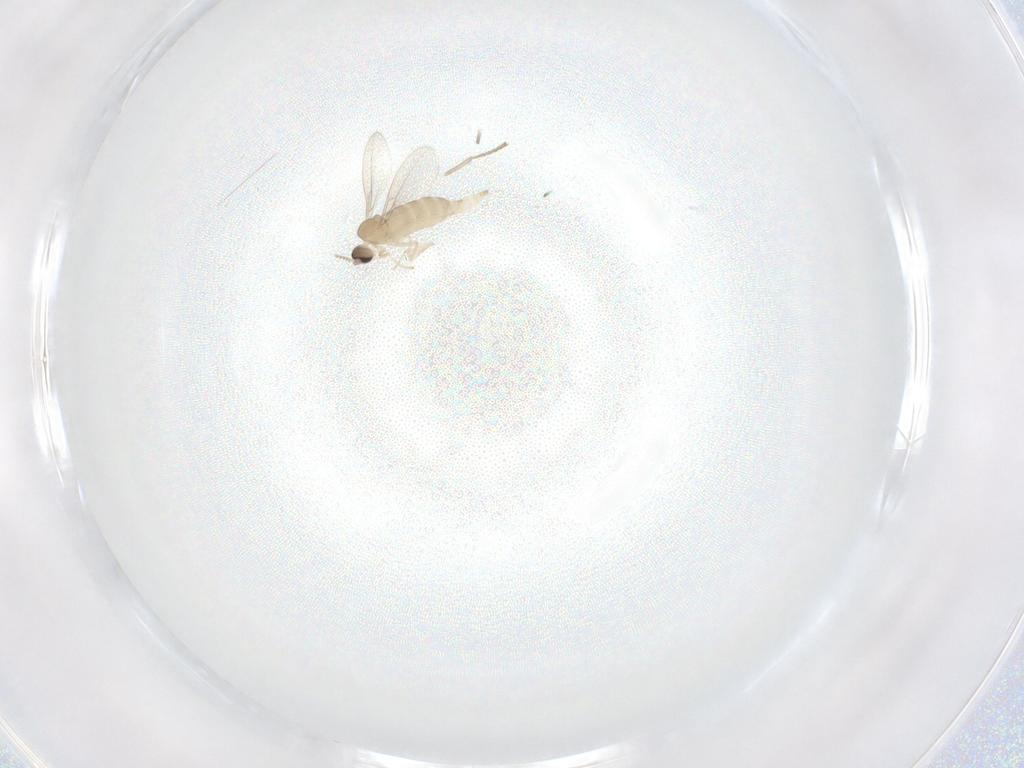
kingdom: Animalia
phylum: Arthropoda
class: Insecta
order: Diptera
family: Psychodidae
